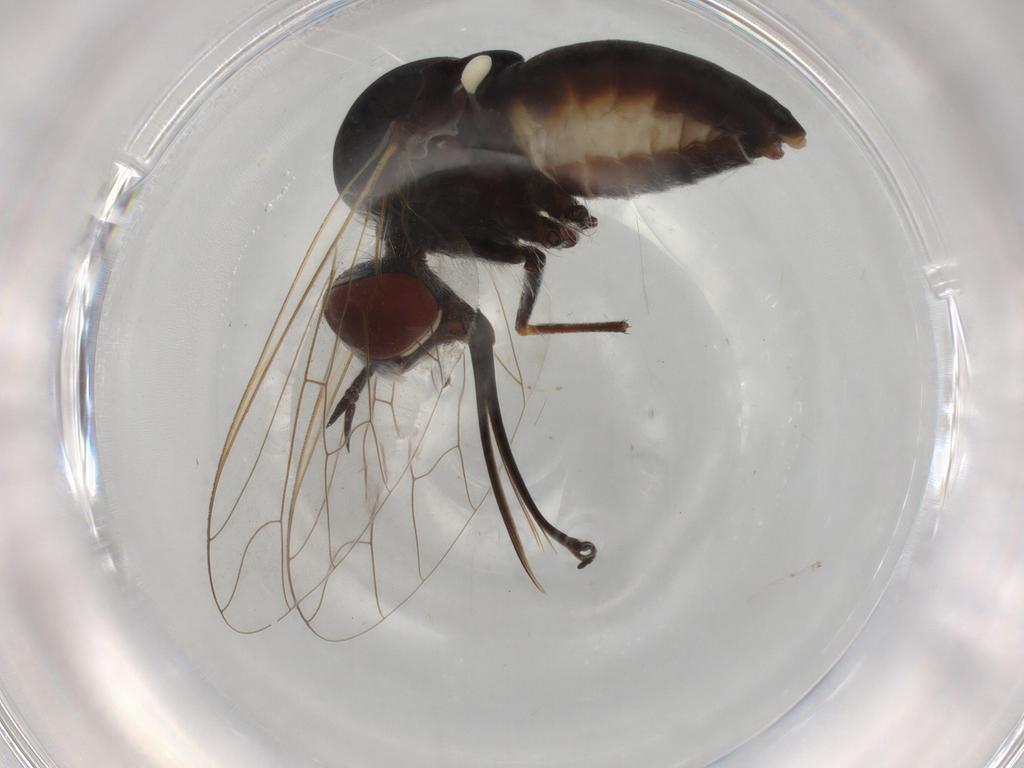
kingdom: Animalia
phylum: Arthropoda
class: Insecta
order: Diptera
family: Bombyliidae
